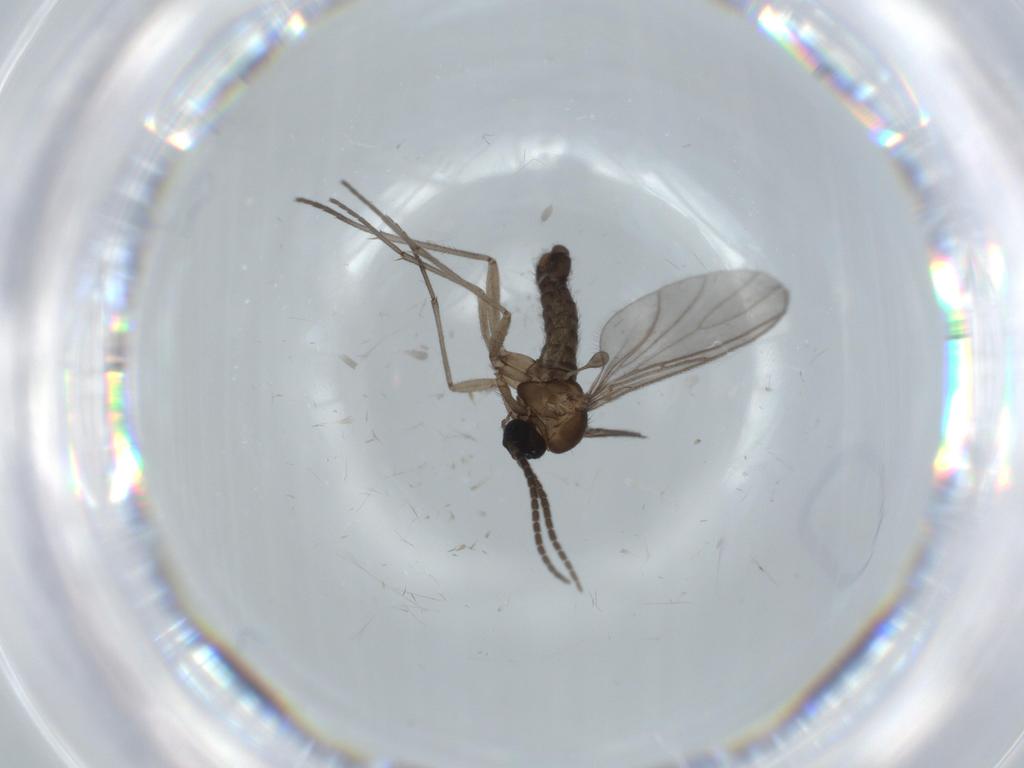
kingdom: Animalia
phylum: Arthropoda
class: Insecta
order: Diptera
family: Sciaridae
